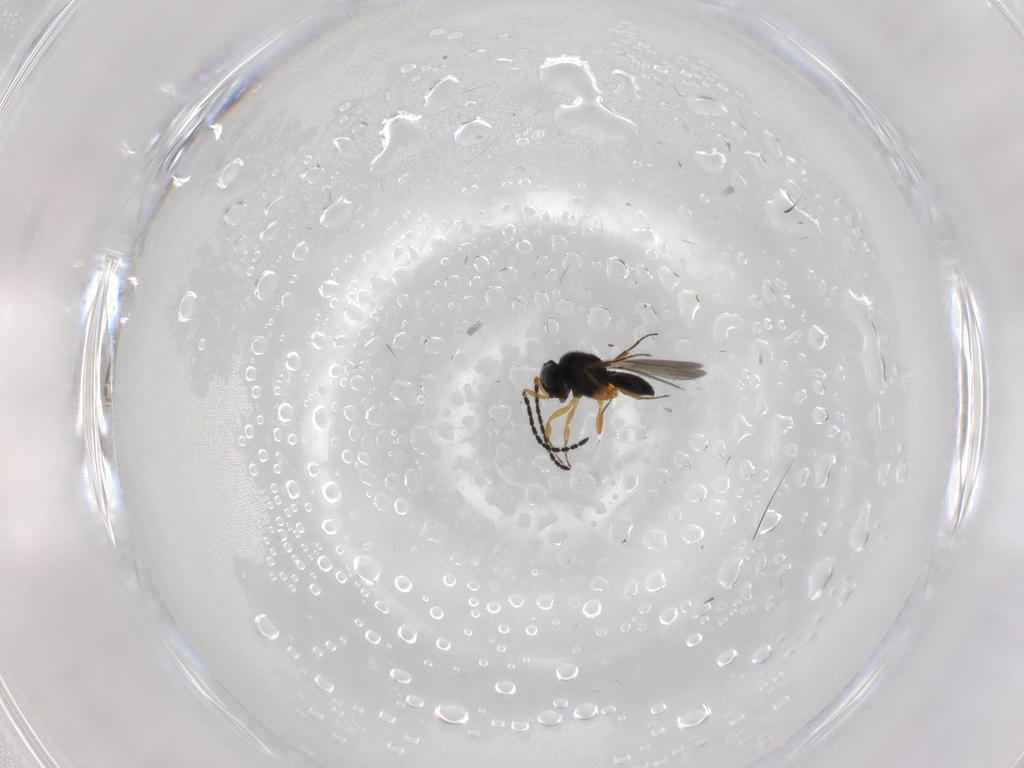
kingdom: Animalia
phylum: Arthropoda
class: Insecta
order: Hymenoptera
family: Scelionidae
